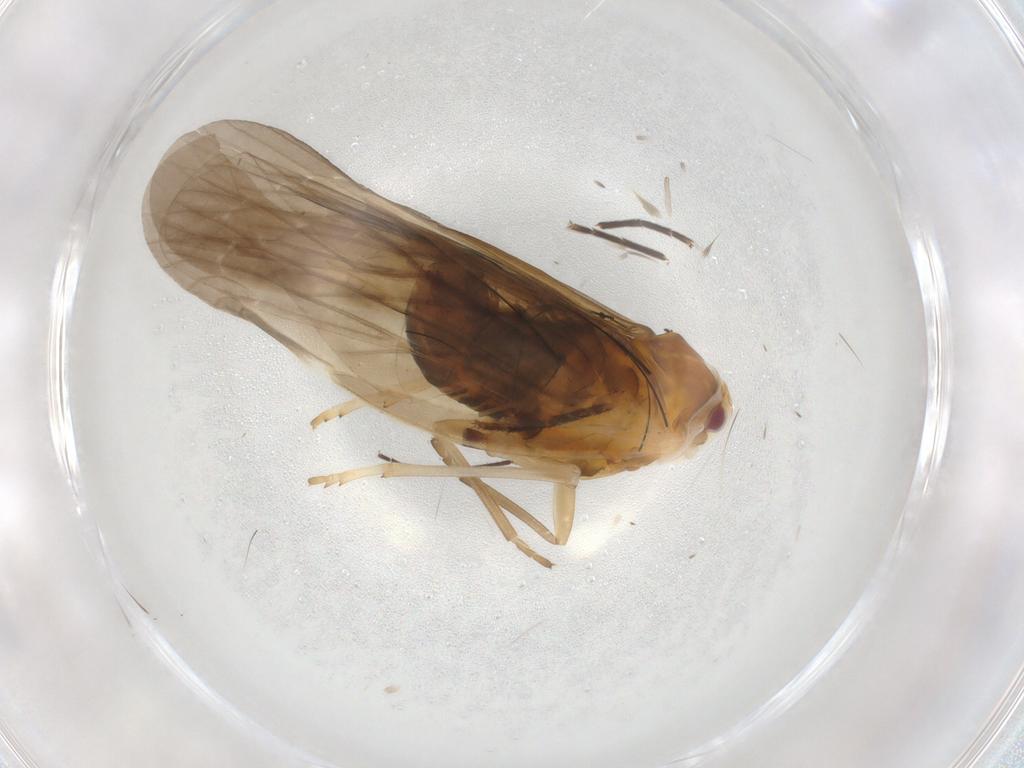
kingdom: Animalia
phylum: Arthropoda
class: Insecta
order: Hemiptera
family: Derbidae
